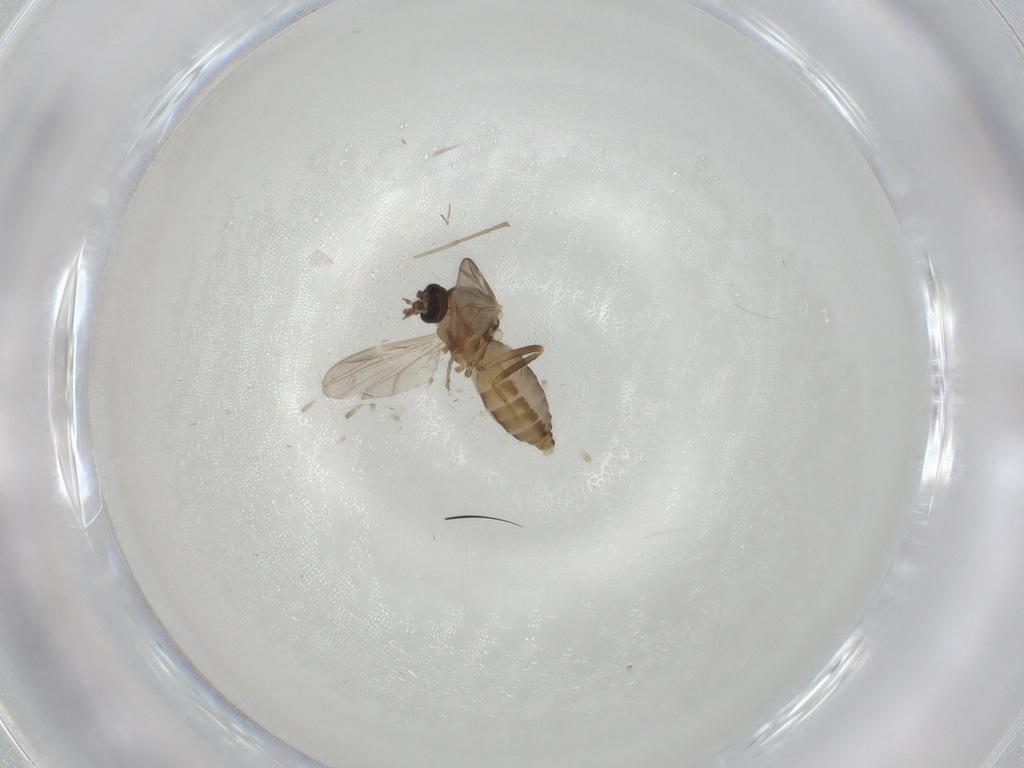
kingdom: Animalia
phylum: Arthropoda
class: Insecta
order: Diptera
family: Ceratopogonidae
